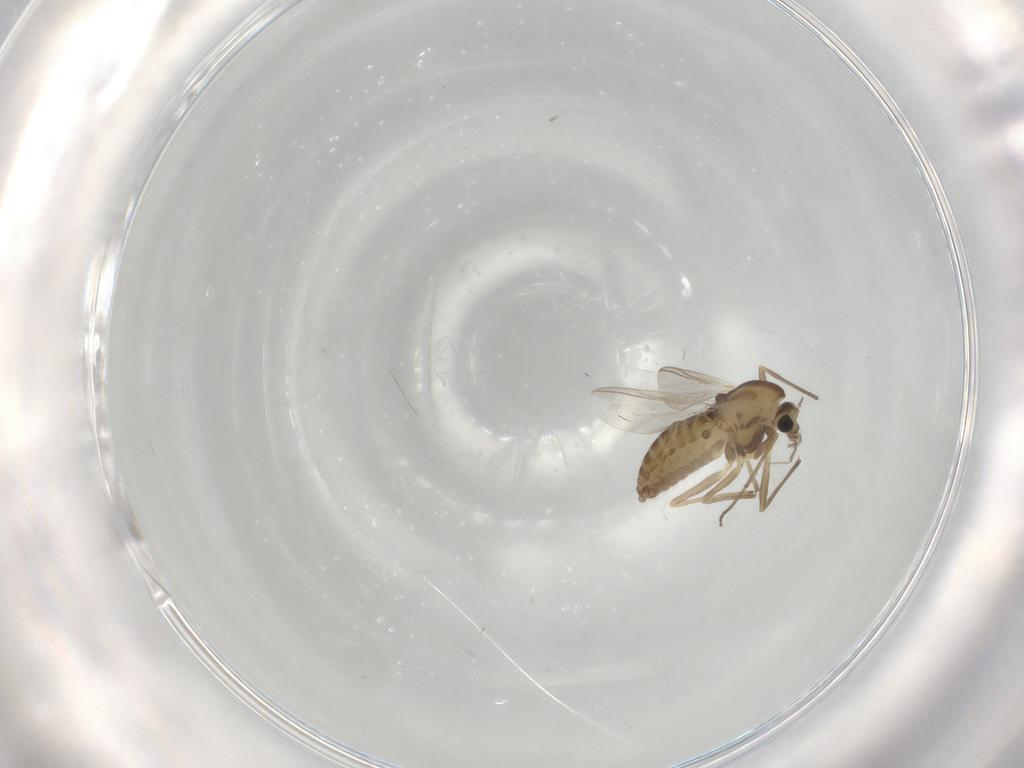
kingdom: Animalia
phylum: Arthropoda
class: Insecta
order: Diptera
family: Chironomidae
